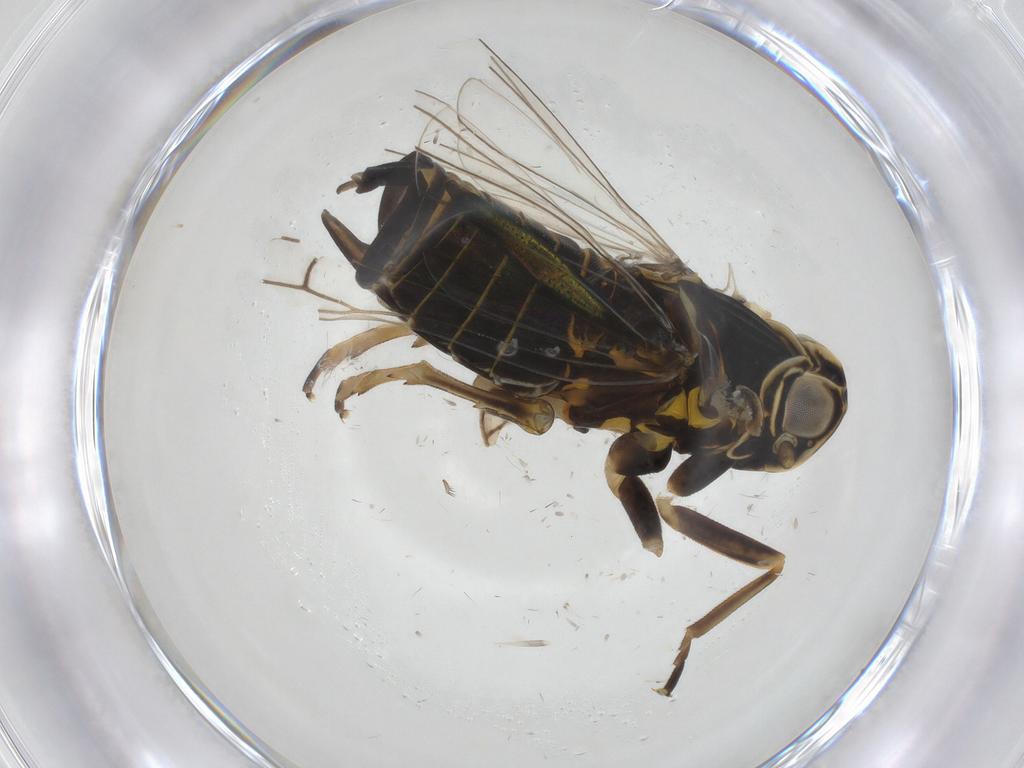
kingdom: Animalia
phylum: Arthropoda
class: Insecta
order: Hemiptera
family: Cixiidae
